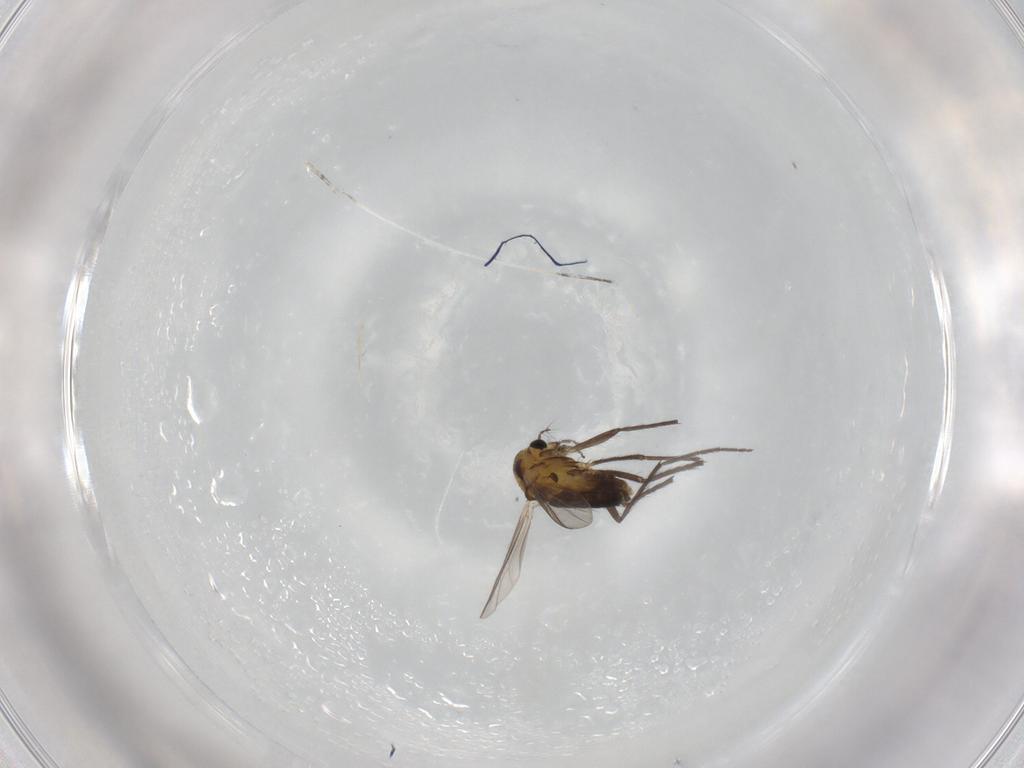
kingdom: Animalia
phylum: Arthropoda
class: Insecta
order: Diptera
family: Chironomidae
